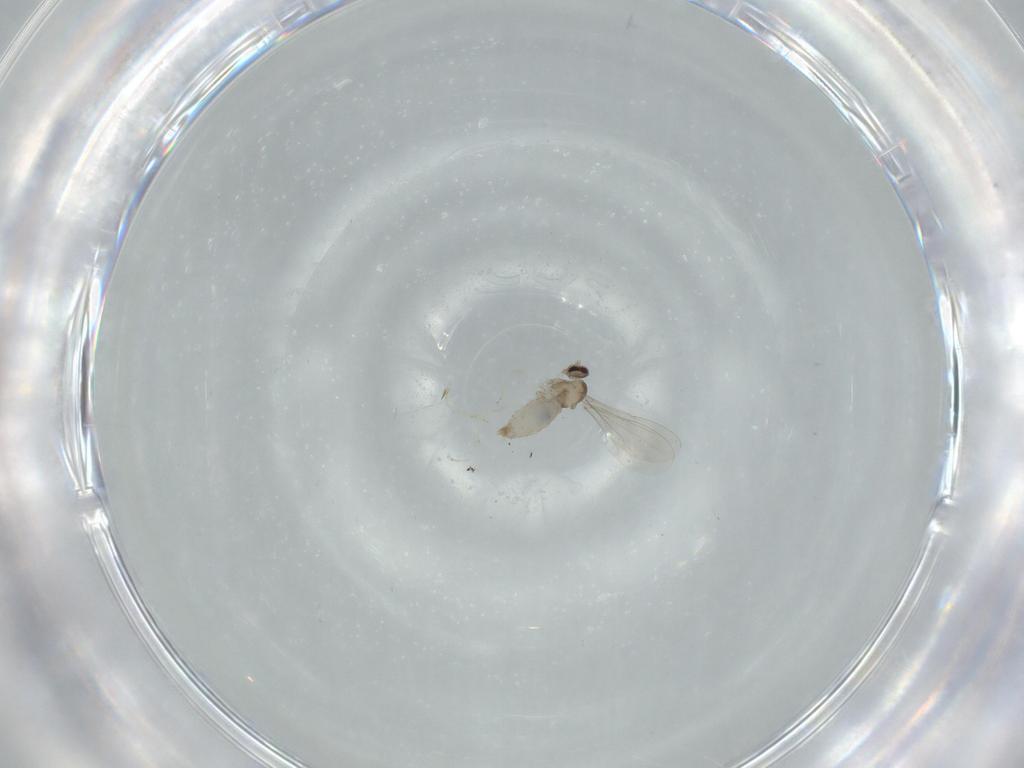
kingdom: Animalia
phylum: Arthropoda
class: Insecta
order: Diptera
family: Cecidomyiidae
